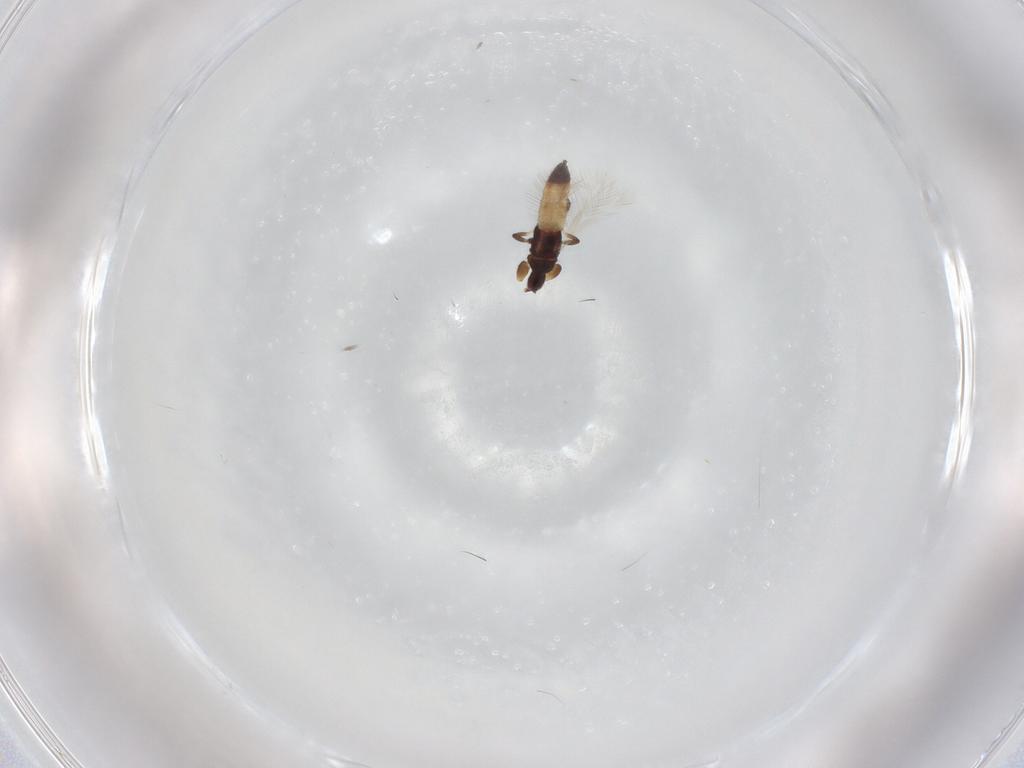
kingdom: Animalia
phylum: Arthropoda
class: Insecta
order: Thysanoptera
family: Phlaeothripidae
